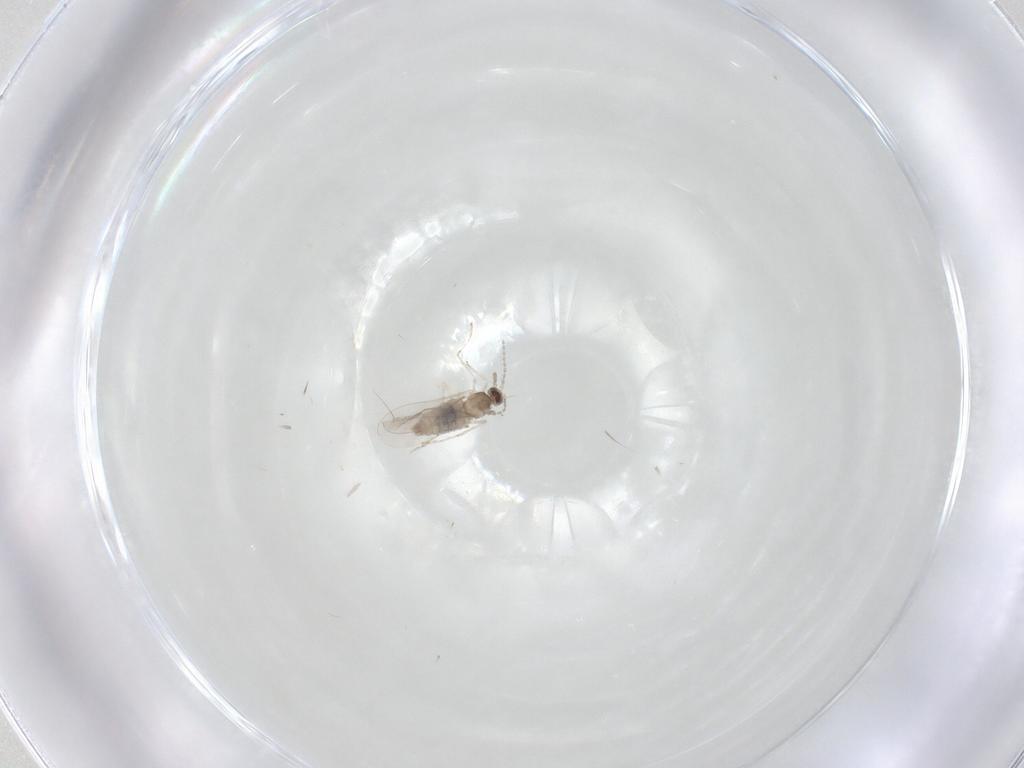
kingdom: Animalia
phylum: Arthropoda
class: Insecta
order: Diptera
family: Cecidomyiidae
